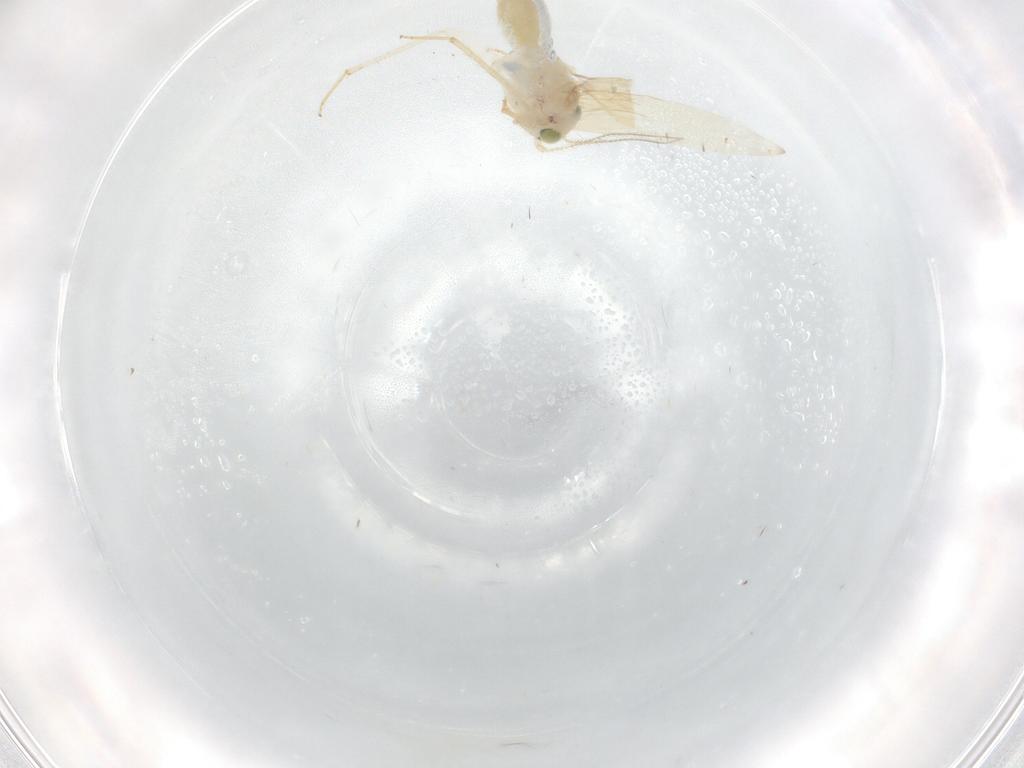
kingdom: Animalia
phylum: Arthropoda
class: Insecta
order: Psocodea
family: Lepidopsocidae
